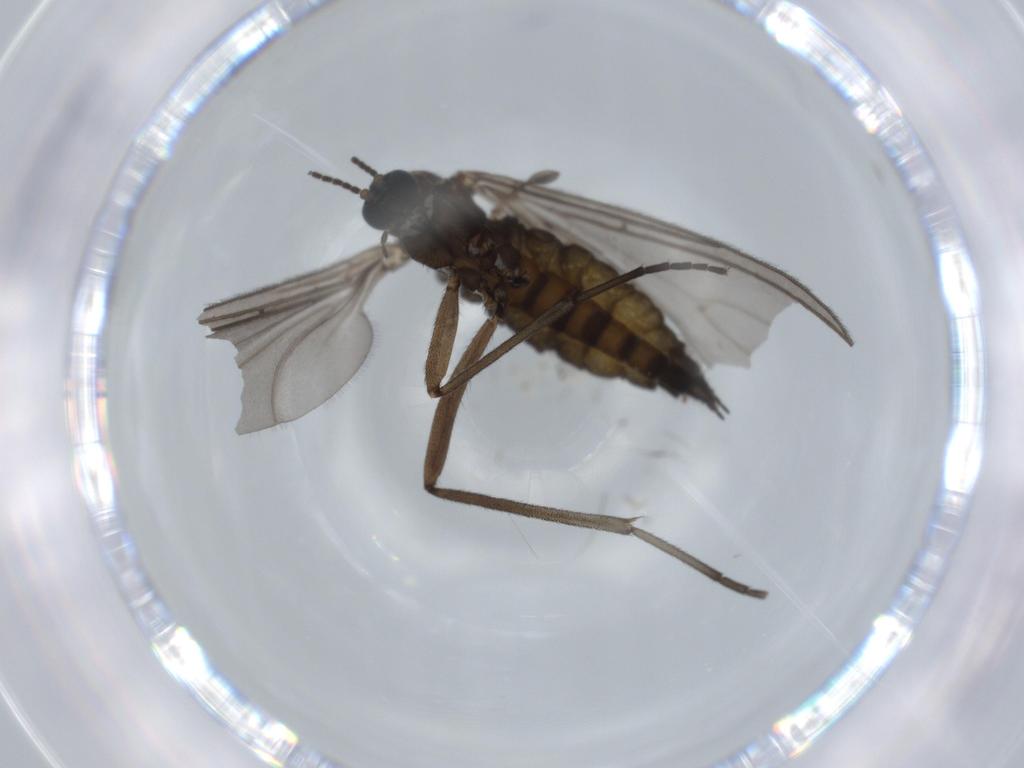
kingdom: Animalia
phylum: Arthropoda
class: Insecta
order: Diptera
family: Sciaridae
